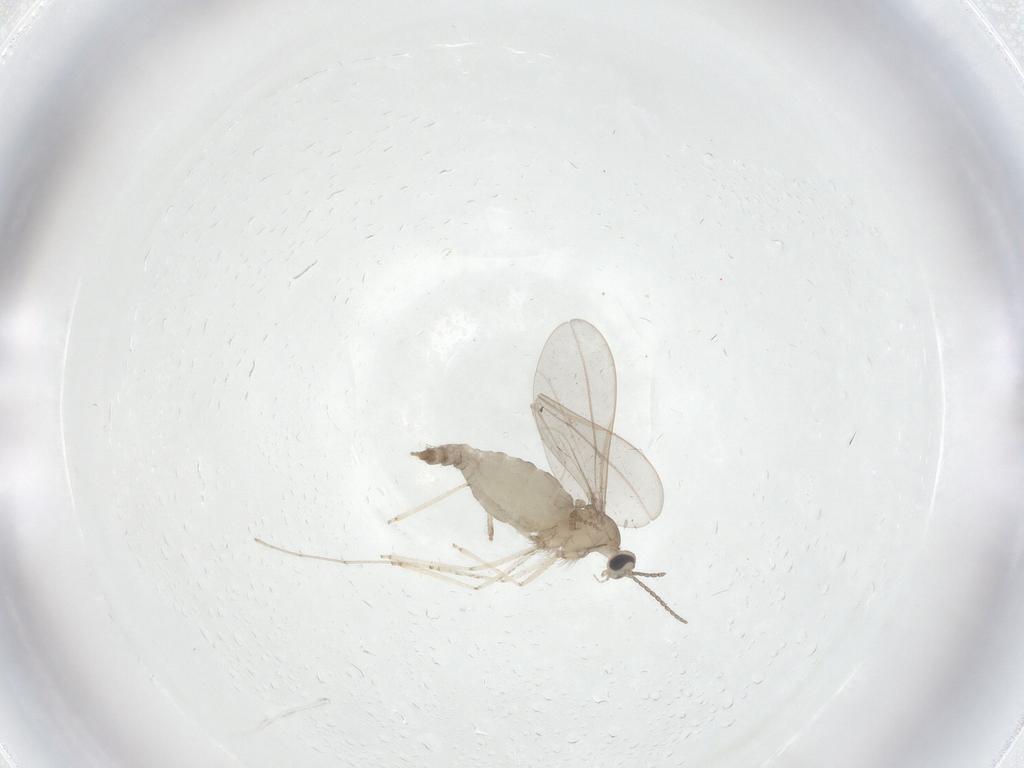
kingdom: Animalia
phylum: Arthropoda
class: Insecta
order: Diptera
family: Cecidomyiidae
